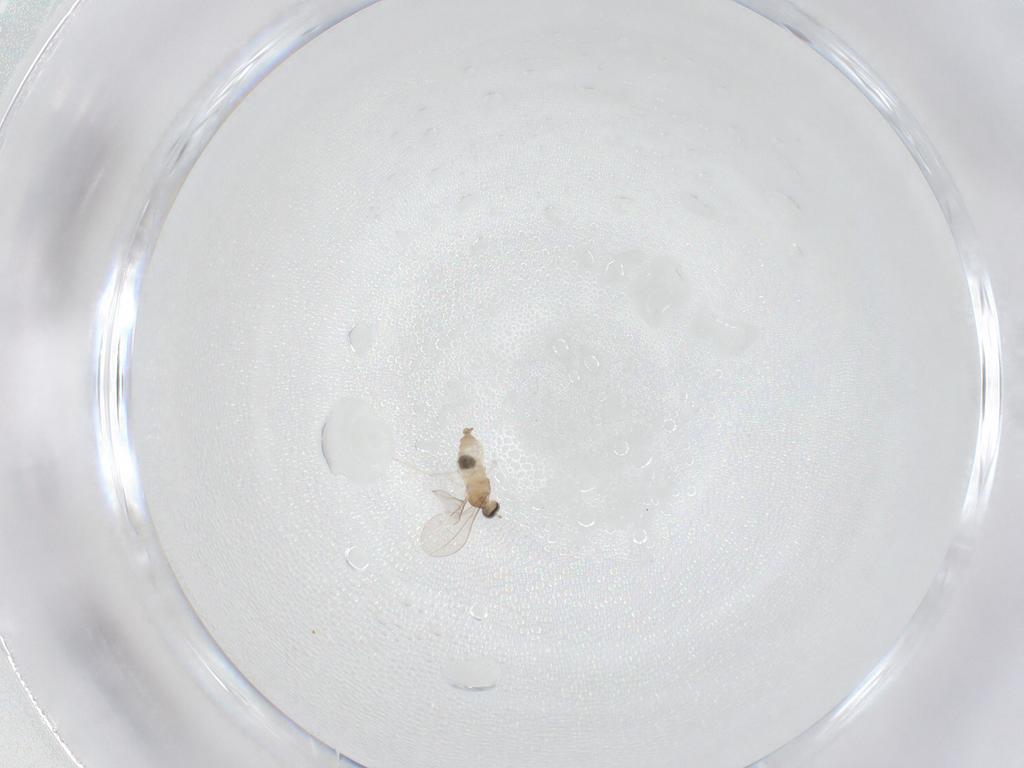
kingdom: Animalia
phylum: Arthropoda
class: Insecta
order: Diptera
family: Cecidomyiidae
